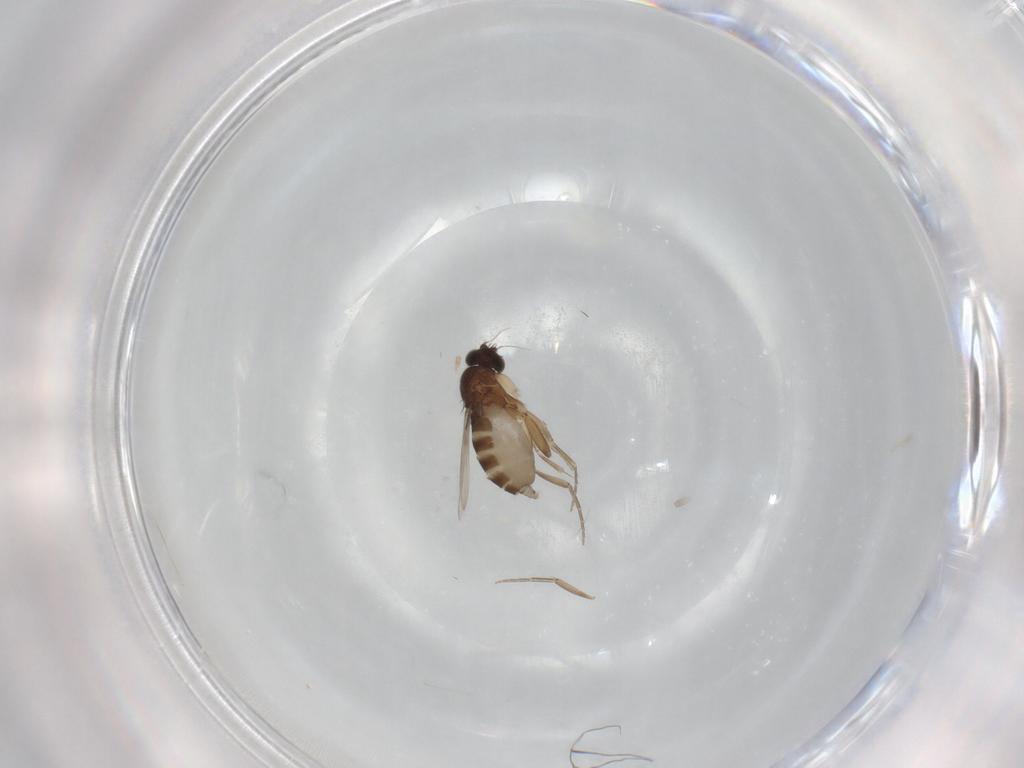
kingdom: Animalia
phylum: Arthropoda
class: Insecta
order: Diptera
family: Phoridae
